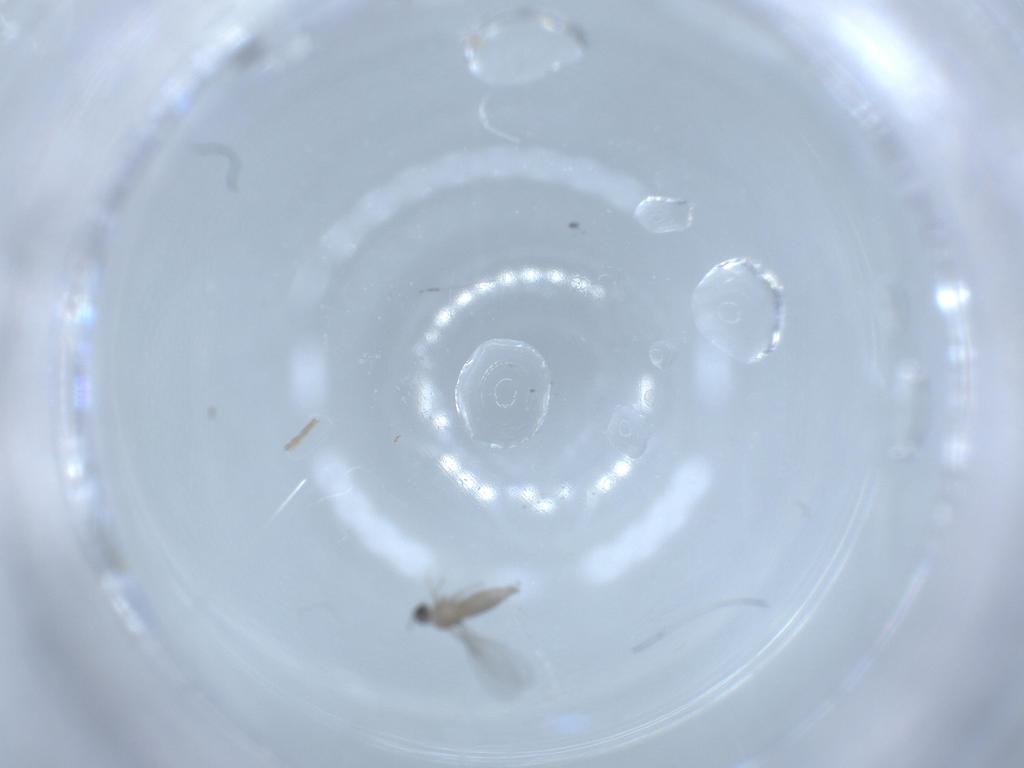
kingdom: Animalia
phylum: Arthropoda
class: Insecta
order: Diptera
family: Cecidomyiidae
